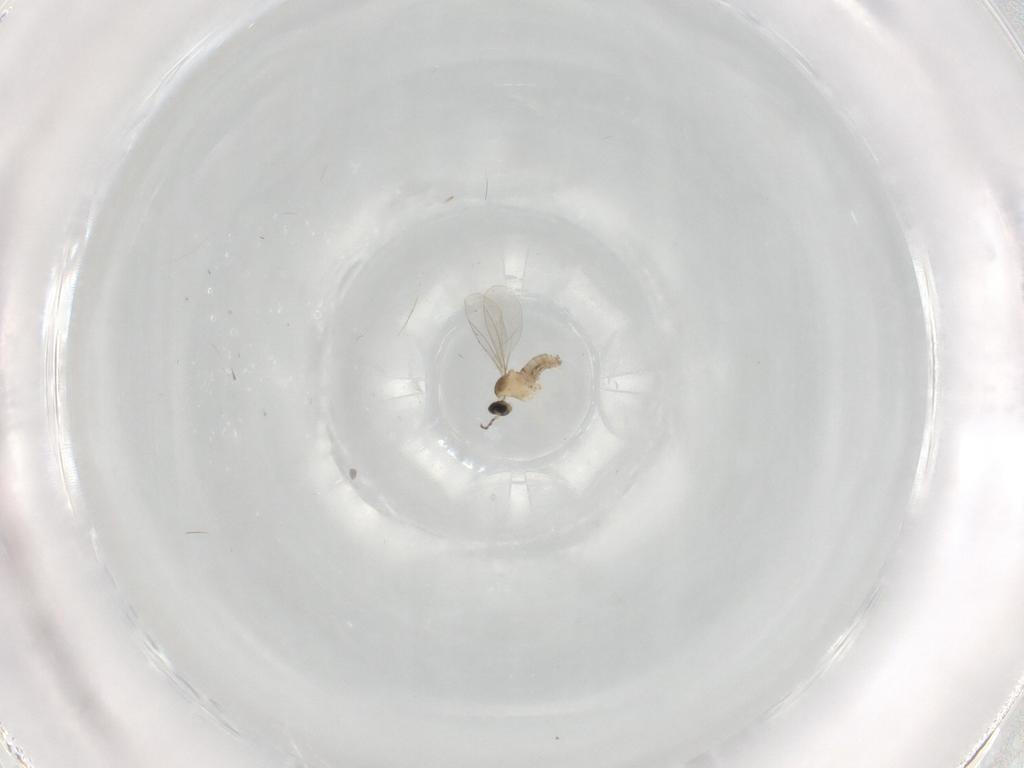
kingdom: Animalia
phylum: Arthropoda
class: Insecta
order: Diptera
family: Cecidomyiidae
